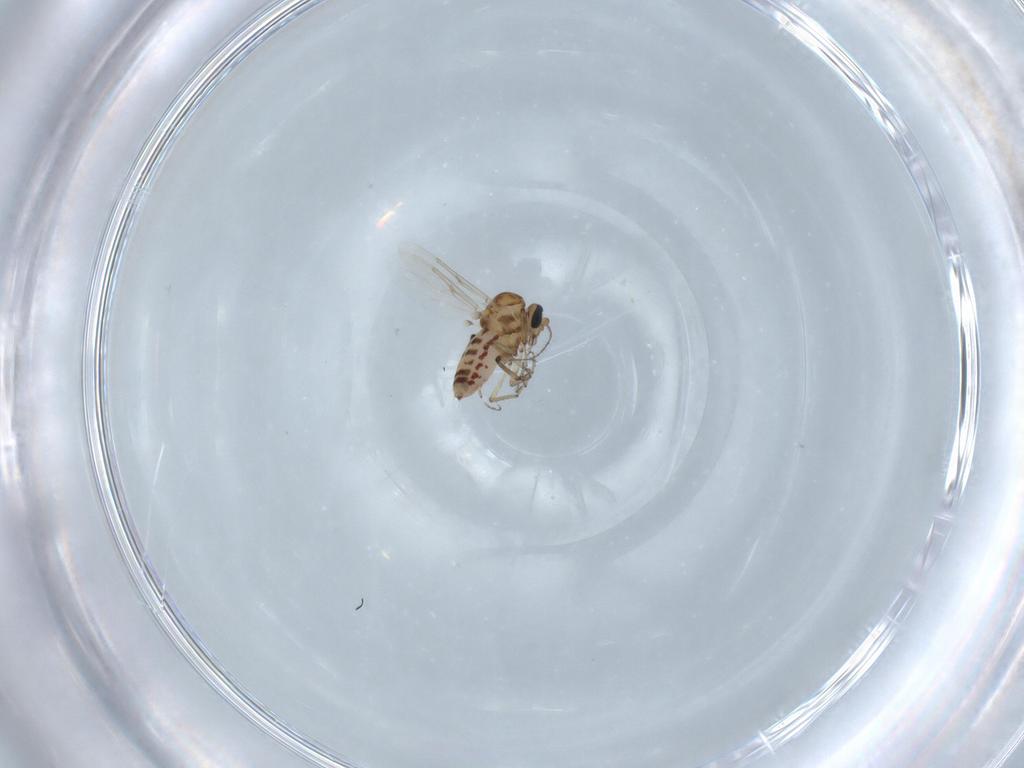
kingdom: Animalia
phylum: Arthropoda
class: Insecta
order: Diptera
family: Ceratopogonidae
